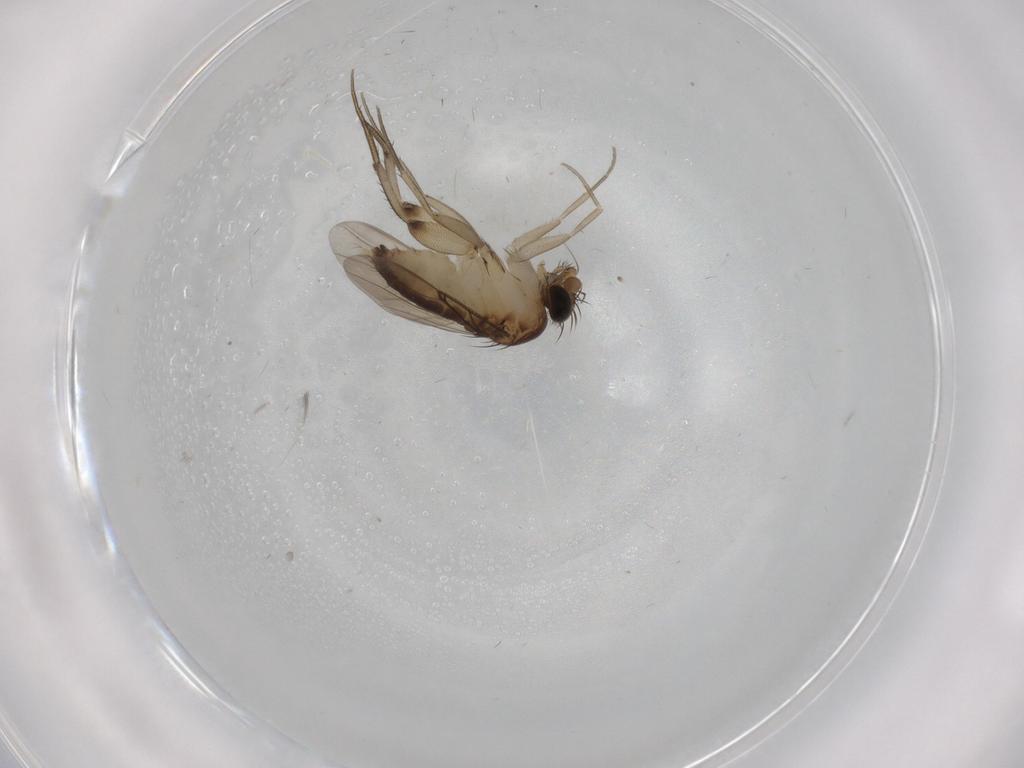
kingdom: Animalia
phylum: Arthropoda
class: Insecta
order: Diptera
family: Phoridae
